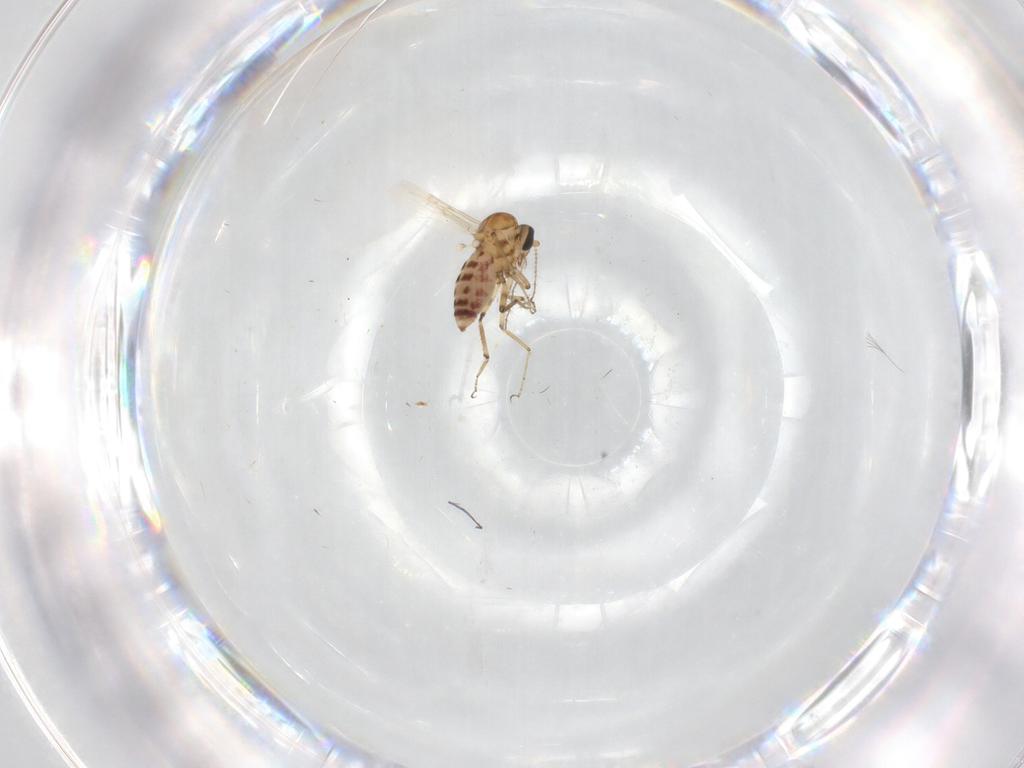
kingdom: Animalia
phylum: Arthropoda
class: Insecta
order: Diptera
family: Ceratopogonidae
